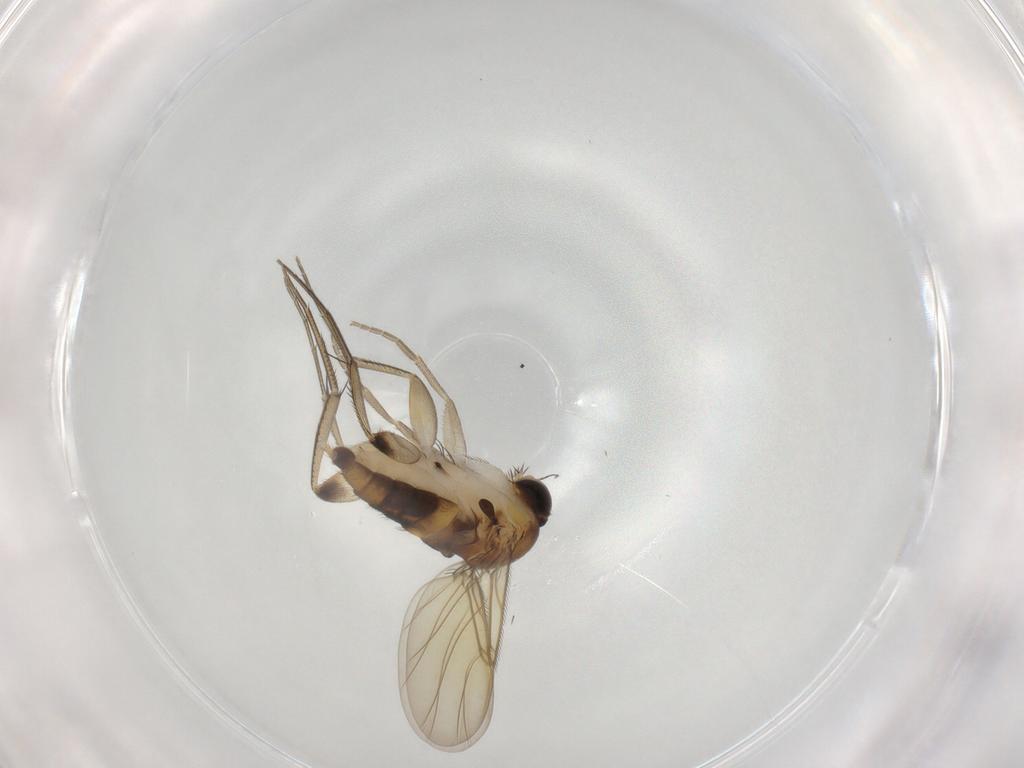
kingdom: Animalia
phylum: Arthropoda
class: Insecta
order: Diptera
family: Phoridae
